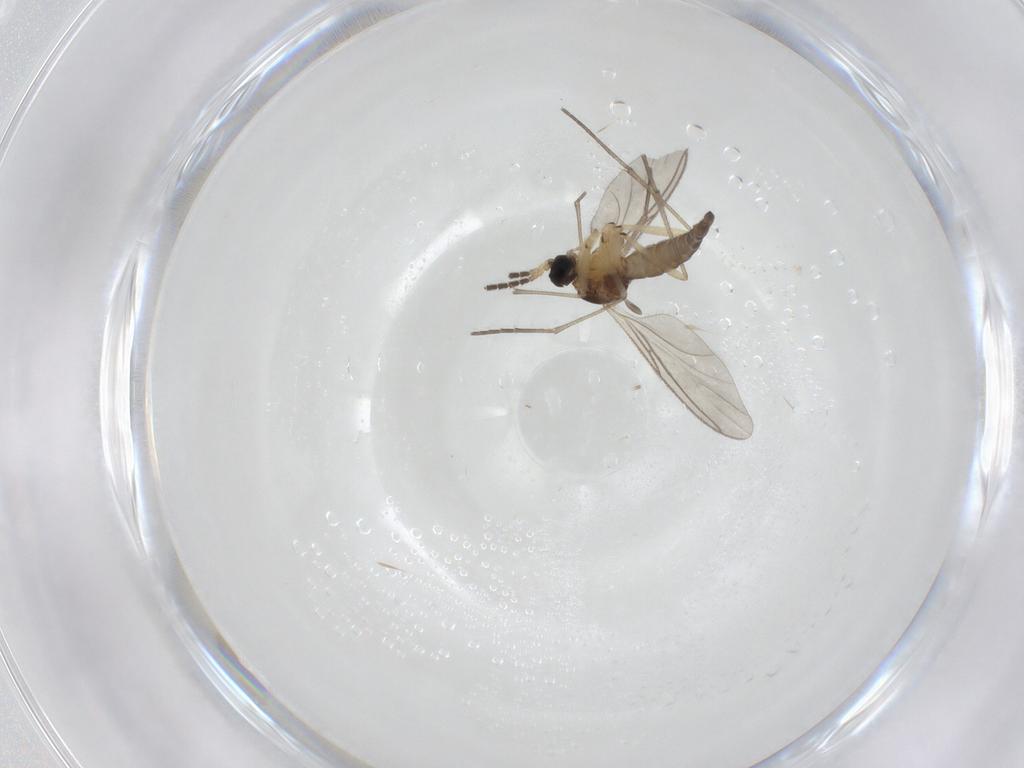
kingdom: Animalia
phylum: Arthropoda
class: Insecta
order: Diptera
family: Sciaridae
